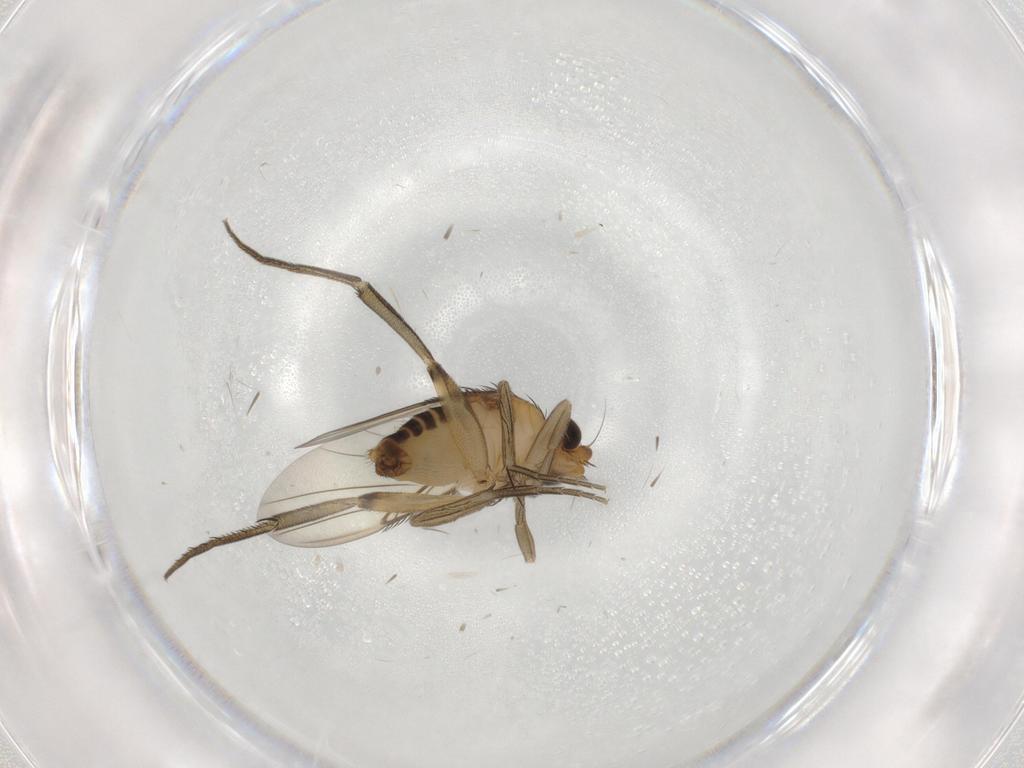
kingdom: Animalia
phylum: Arthropoda
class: Insecta
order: Diptera
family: Phoridae
